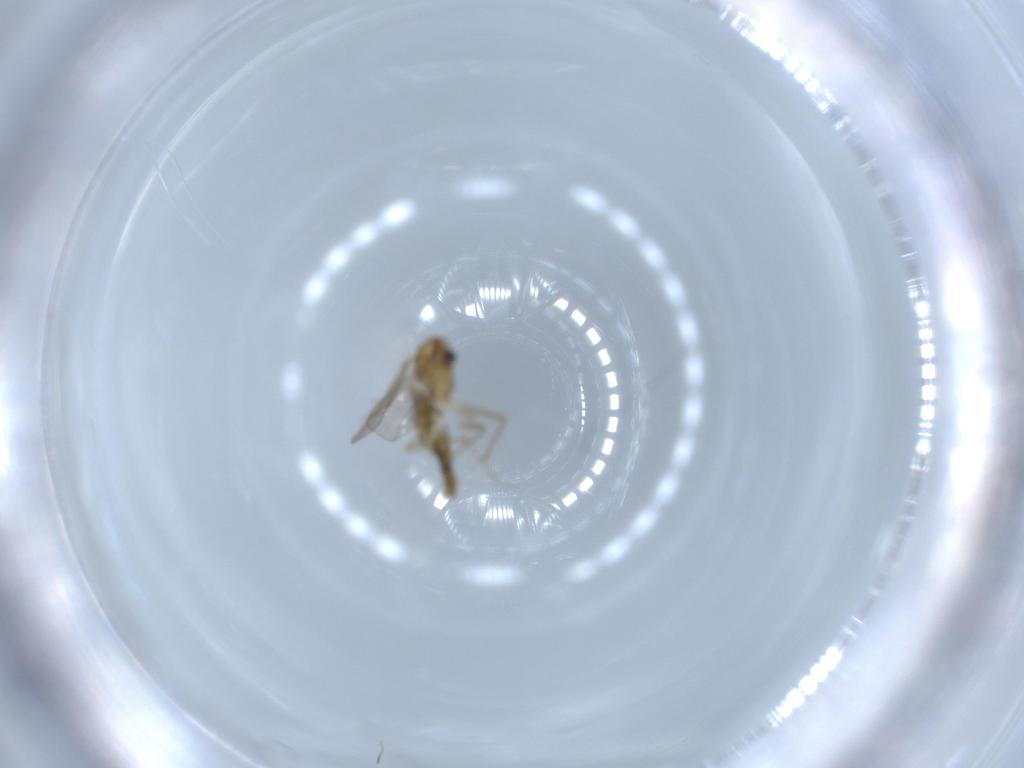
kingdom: Animalia
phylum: Arthropoda
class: Insecta
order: Diptera
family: Chironomidae
